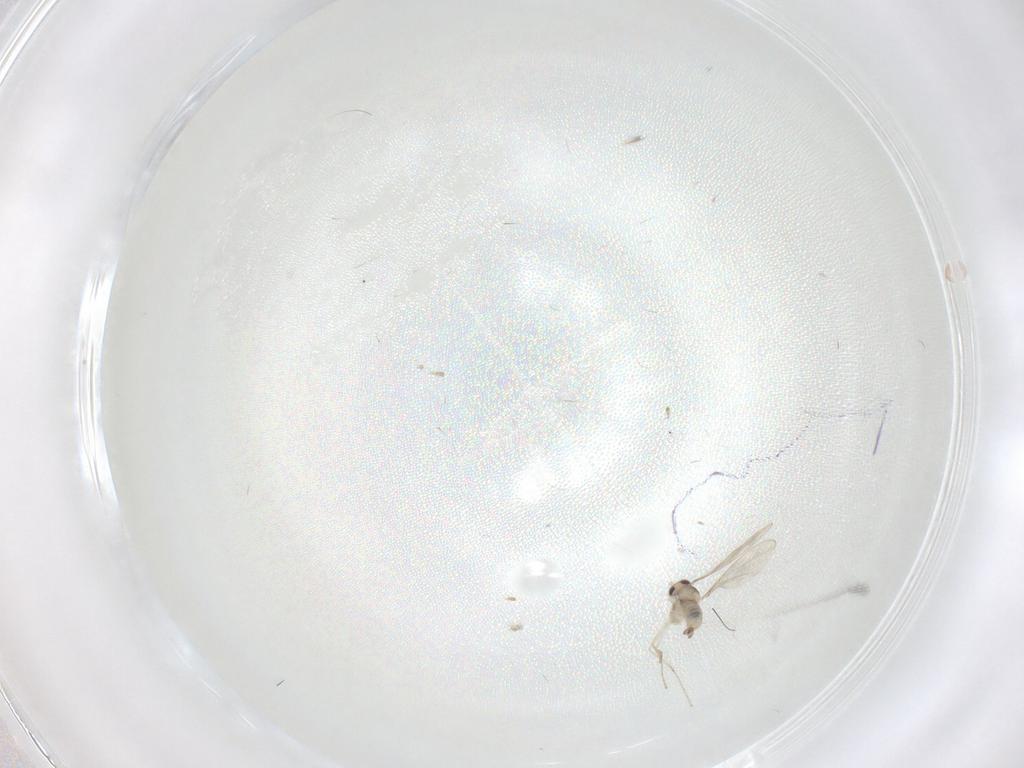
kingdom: Animalia
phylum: Arthropoda
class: Insecta
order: Diptera
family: Cecidomyiidae
